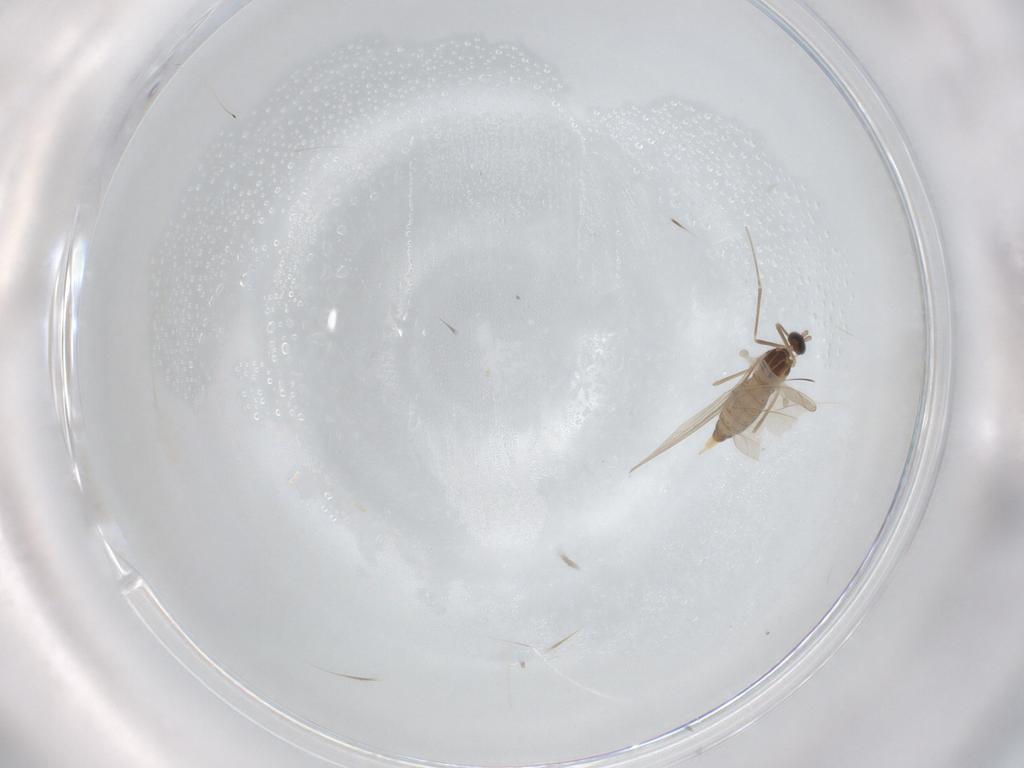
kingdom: Animalia
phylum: Arthropoda
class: Insecta
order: Diptera
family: Cecidomyiidae
